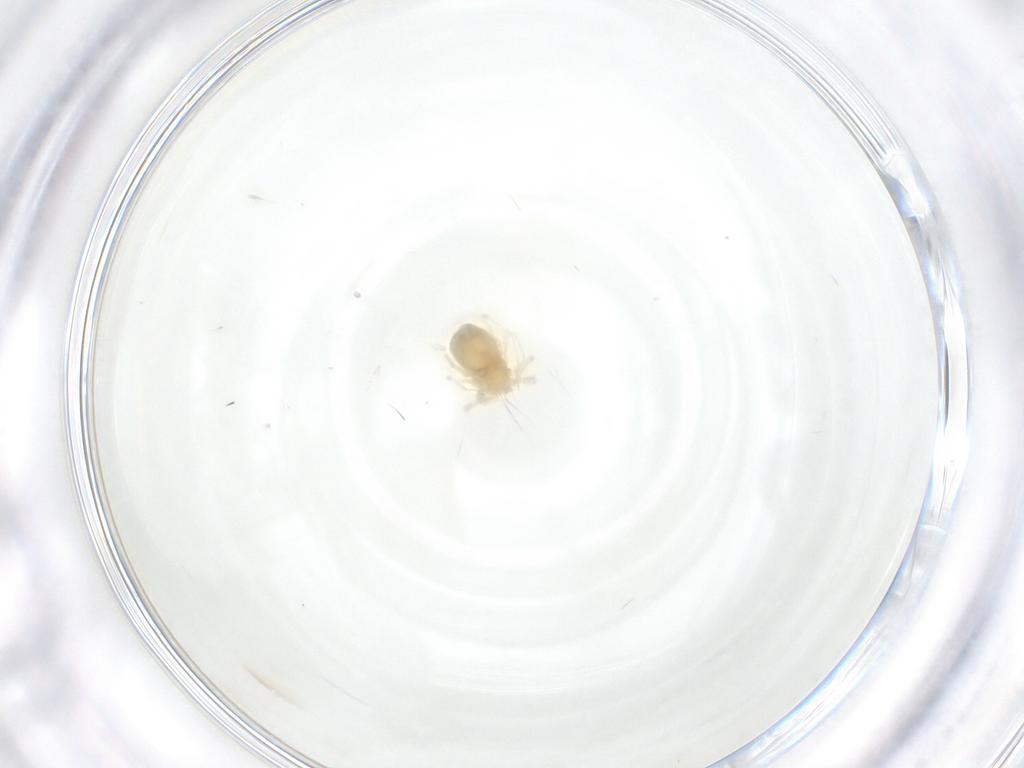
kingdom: Animalia
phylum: Arthropoda
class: Arachnida
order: Trombidiformes
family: Anystidae
